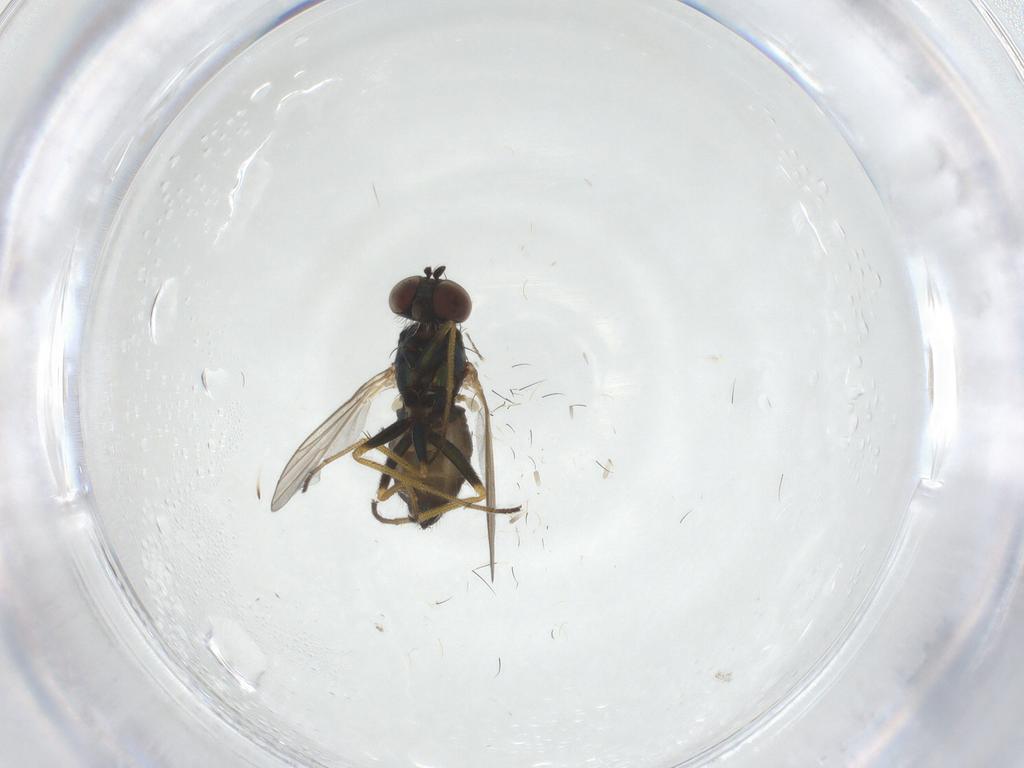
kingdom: Animalia
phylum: Arthropoda
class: Insecta
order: Diptera
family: Dolichopodidae
